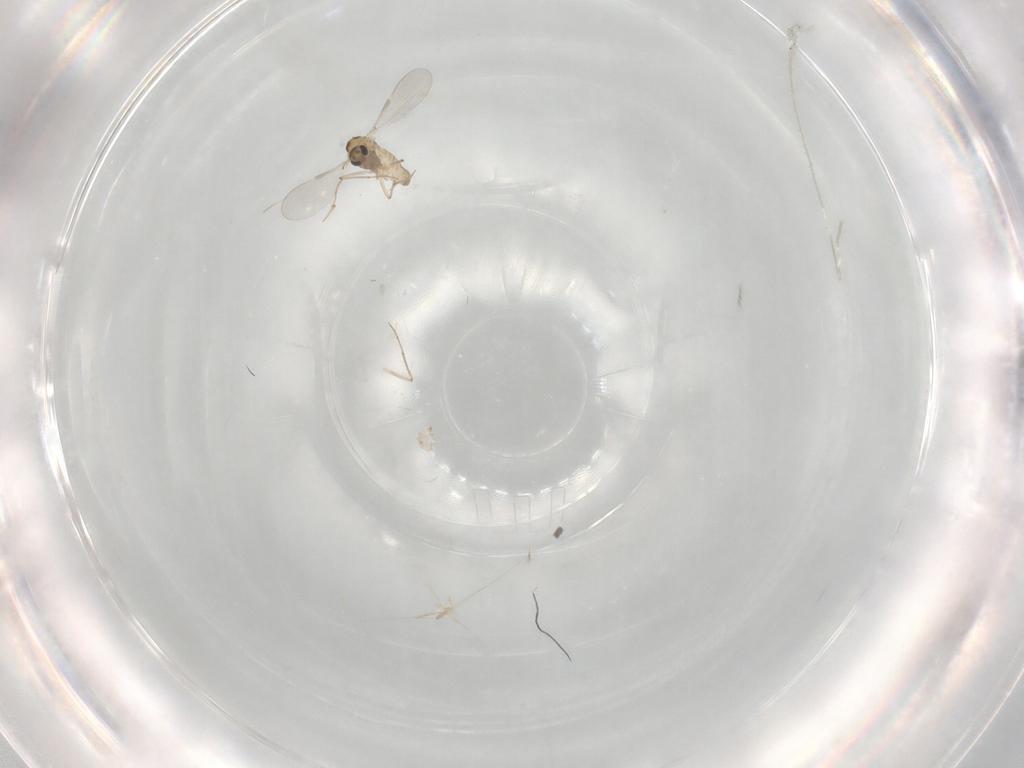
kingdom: Animalia
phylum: Arthropoda
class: Insecta
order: Diptera
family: Chironomidae
